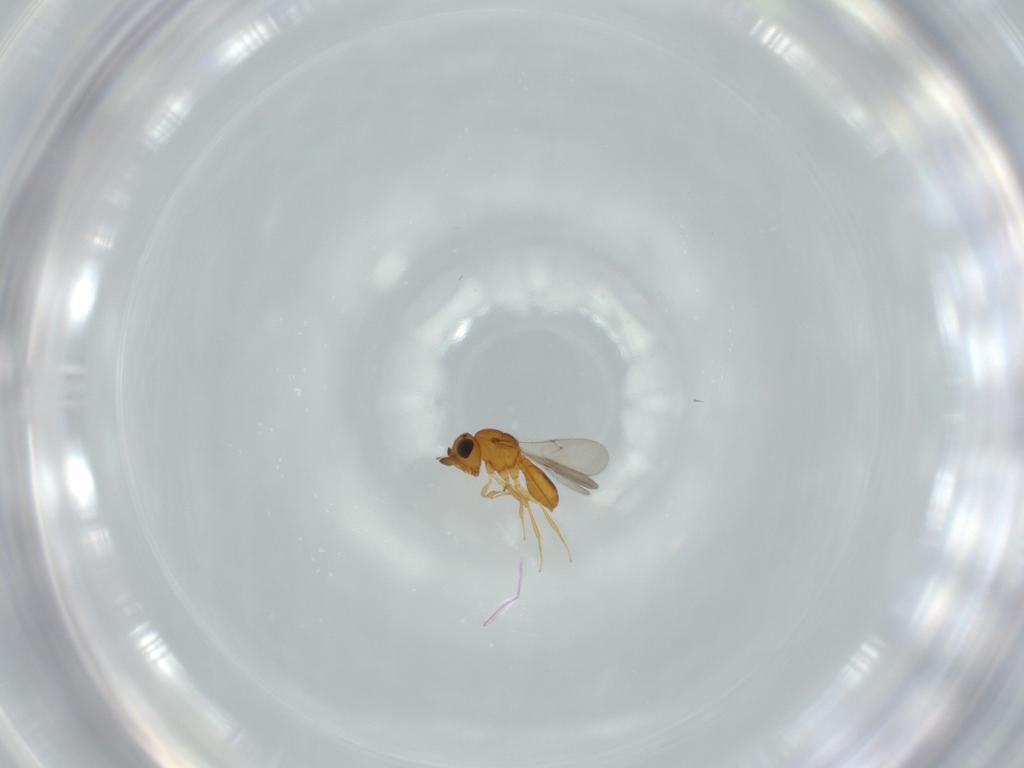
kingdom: Animalia
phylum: Arthropoda
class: Insecta
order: Hymenoptera
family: Scelionidae
